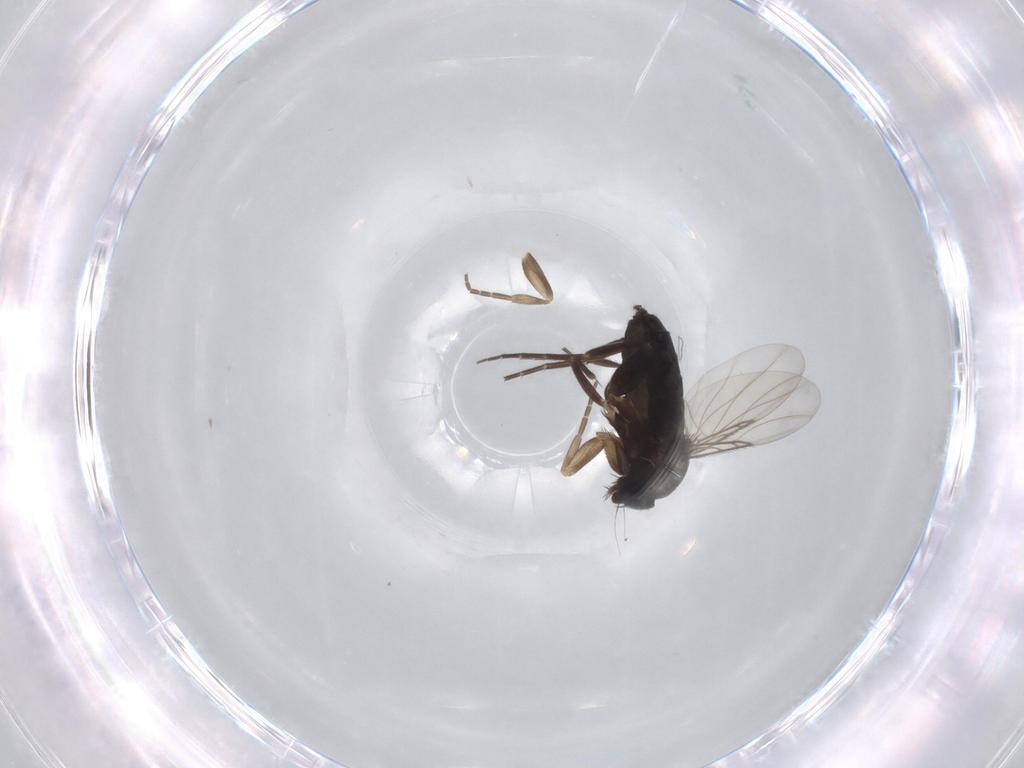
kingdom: Animalia
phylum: Arthropoda
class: Insecta
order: Diptera
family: Phoridae
